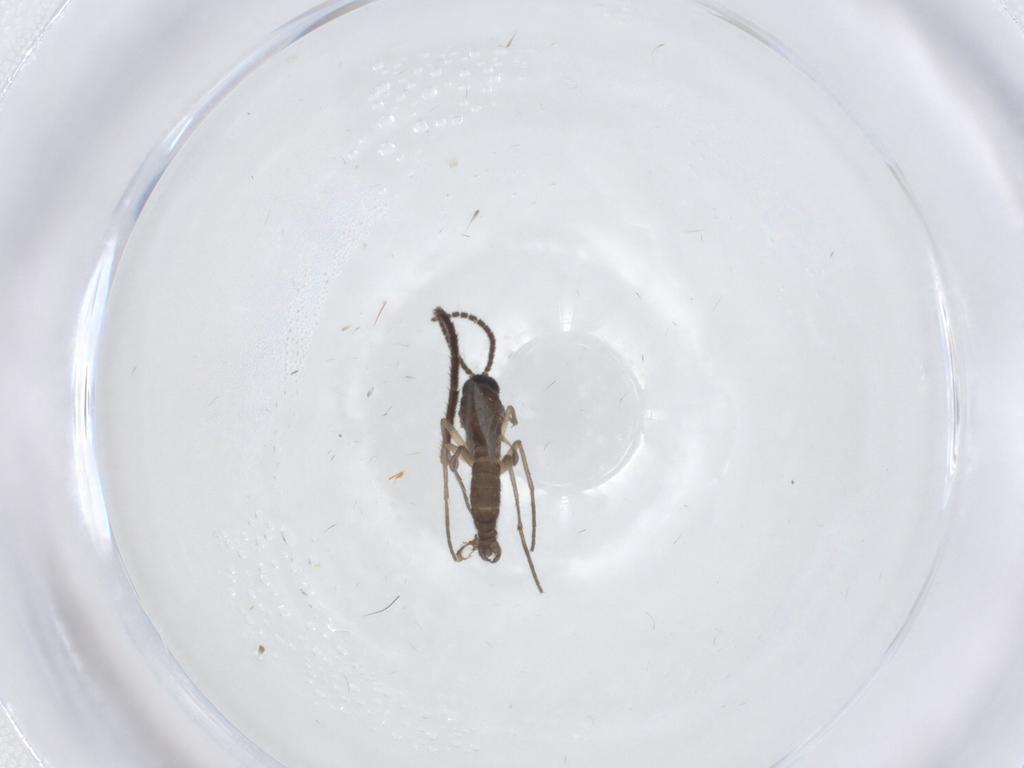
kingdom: Animalia
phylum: Arthropoda
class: Insecta
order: Diptera
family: Sciaridae
